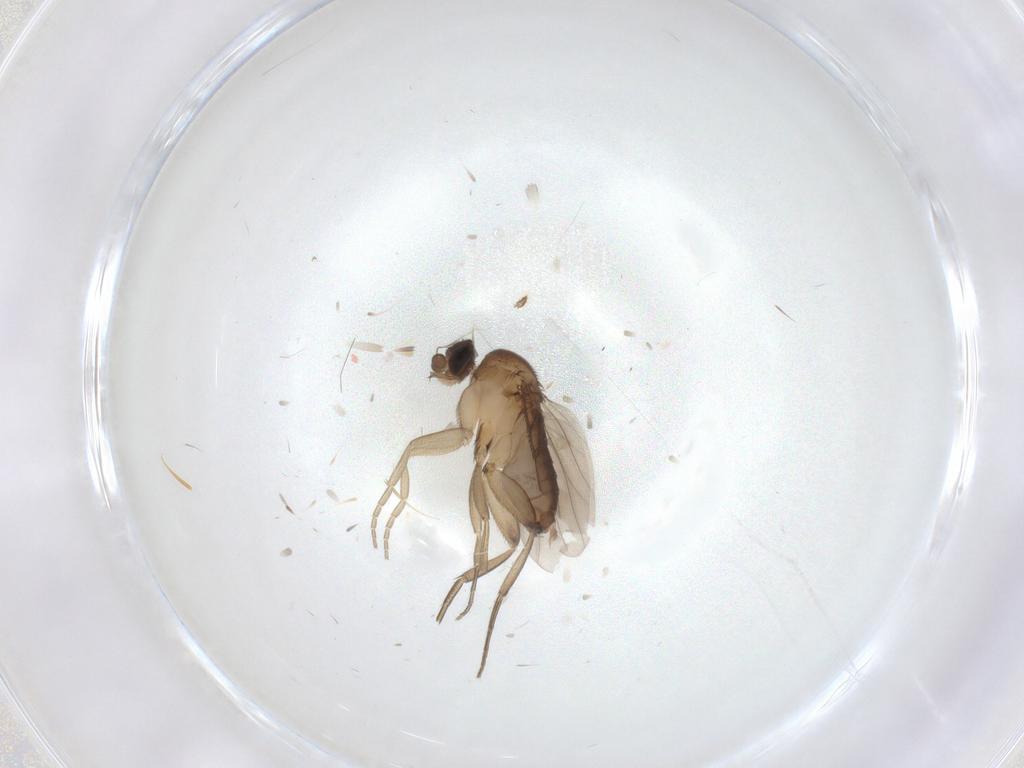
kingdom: Animalia
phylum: Arthropoda
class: Insecta
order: Diptera
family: Phoridae
